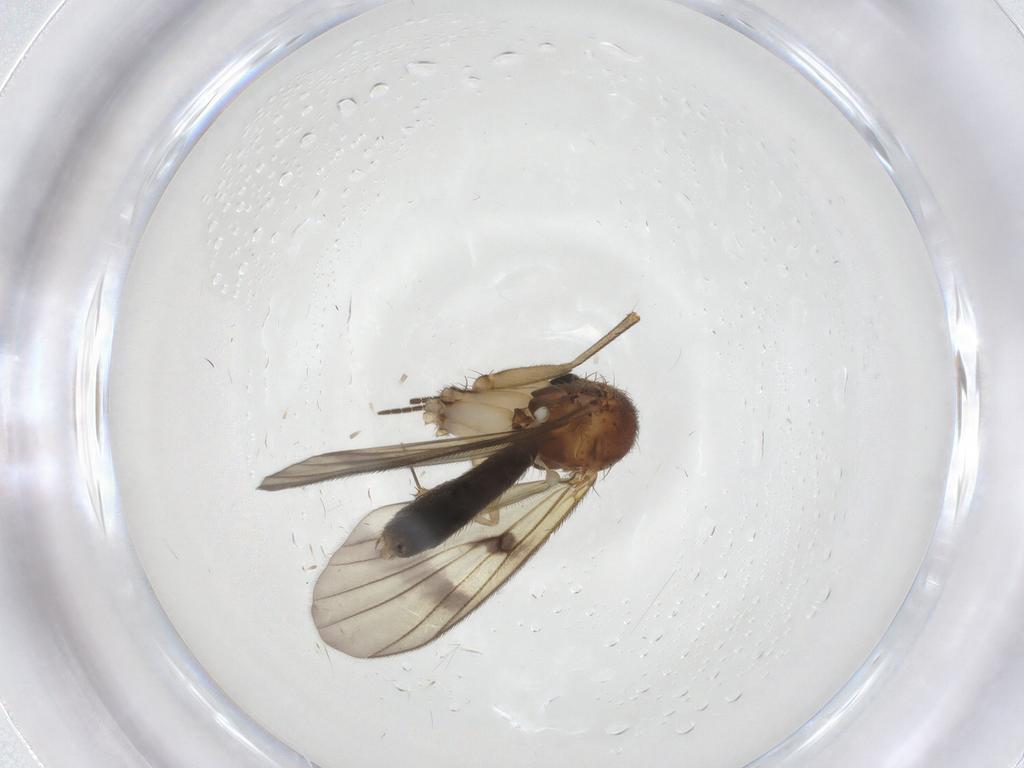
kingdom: Animalia
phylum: Arthropoda
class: Insecta
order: Diptera
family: Mycetophilidae
